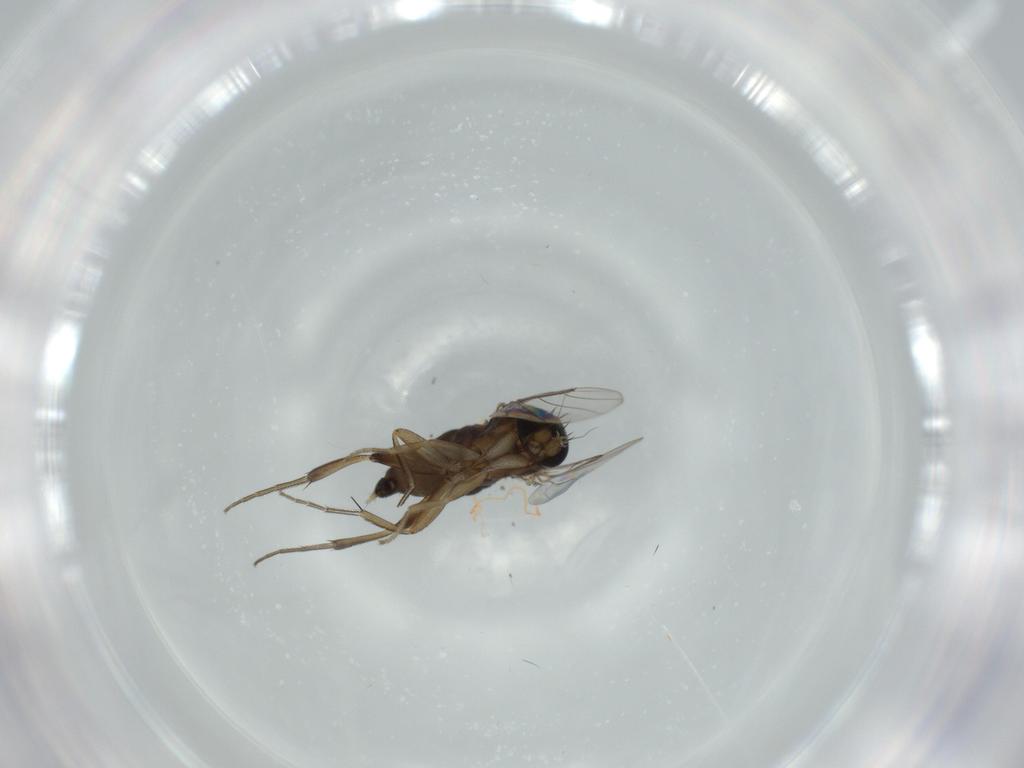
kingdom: Animalia
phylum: Arthropoda
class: Insecta
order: Diptera
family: Phoridae
